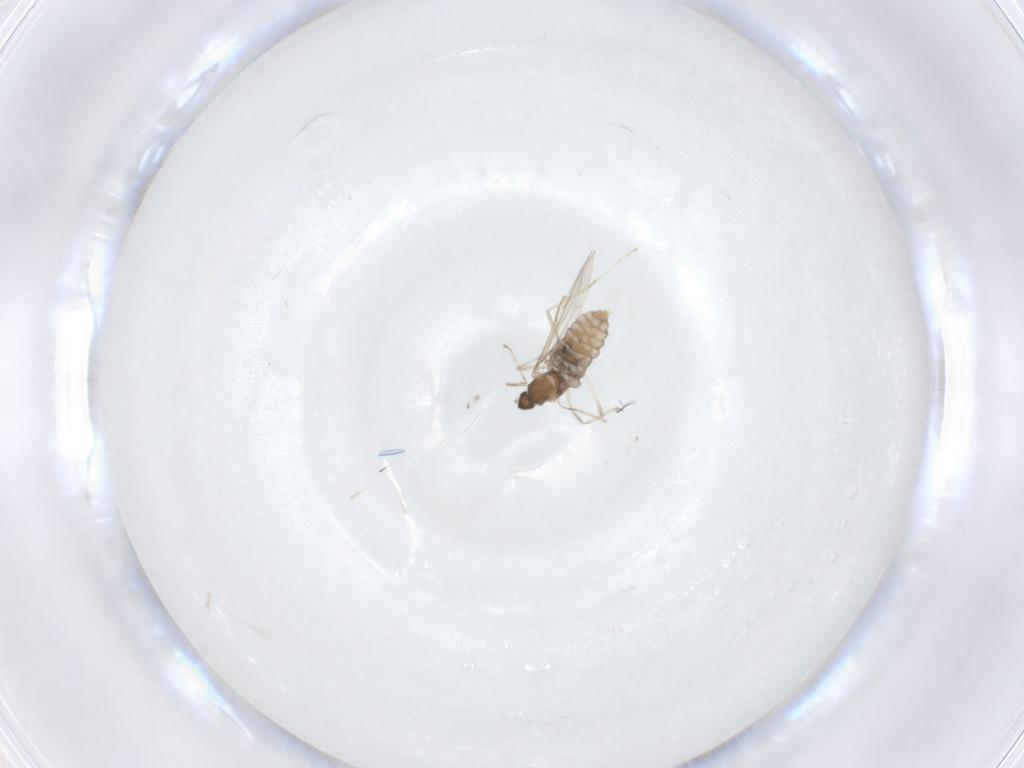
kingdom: Animalia
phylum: Arthropoda
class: Insecta
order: Diptera
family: Cecidomyiidae
